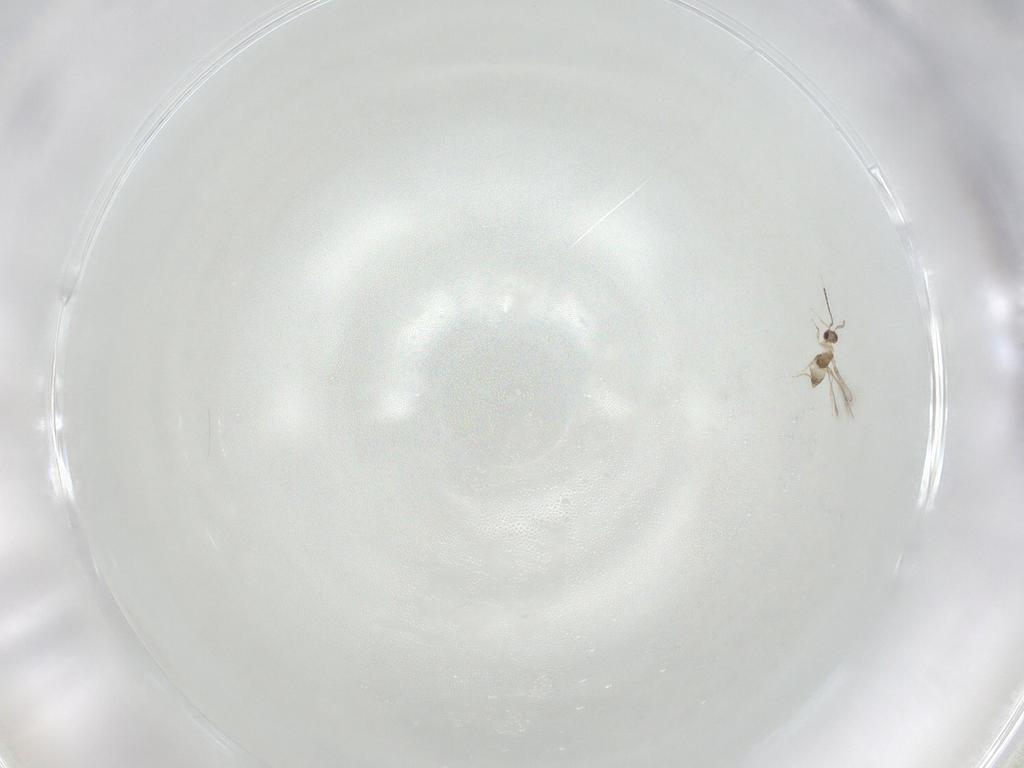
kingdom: Animalia
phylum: Arthropoda
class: Insecta
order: Hymenoptera
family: Mymaridae
